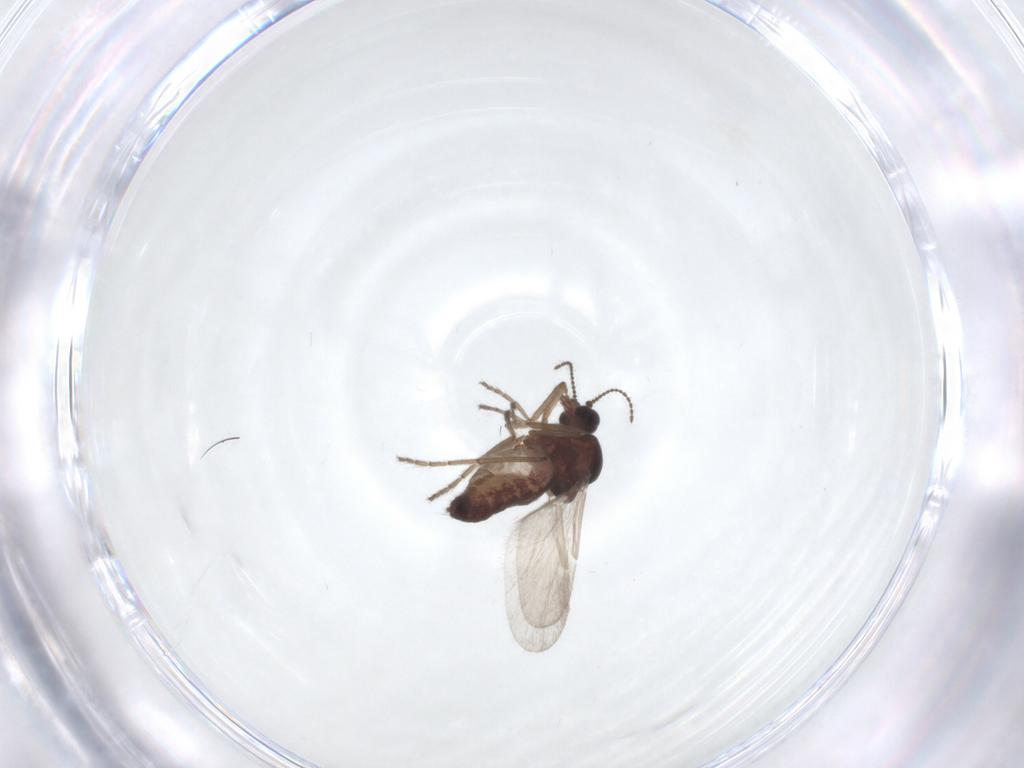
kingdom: Animalia
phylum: Arthropoda
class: Insecta
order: Diptera
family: Ceratopogonidae
